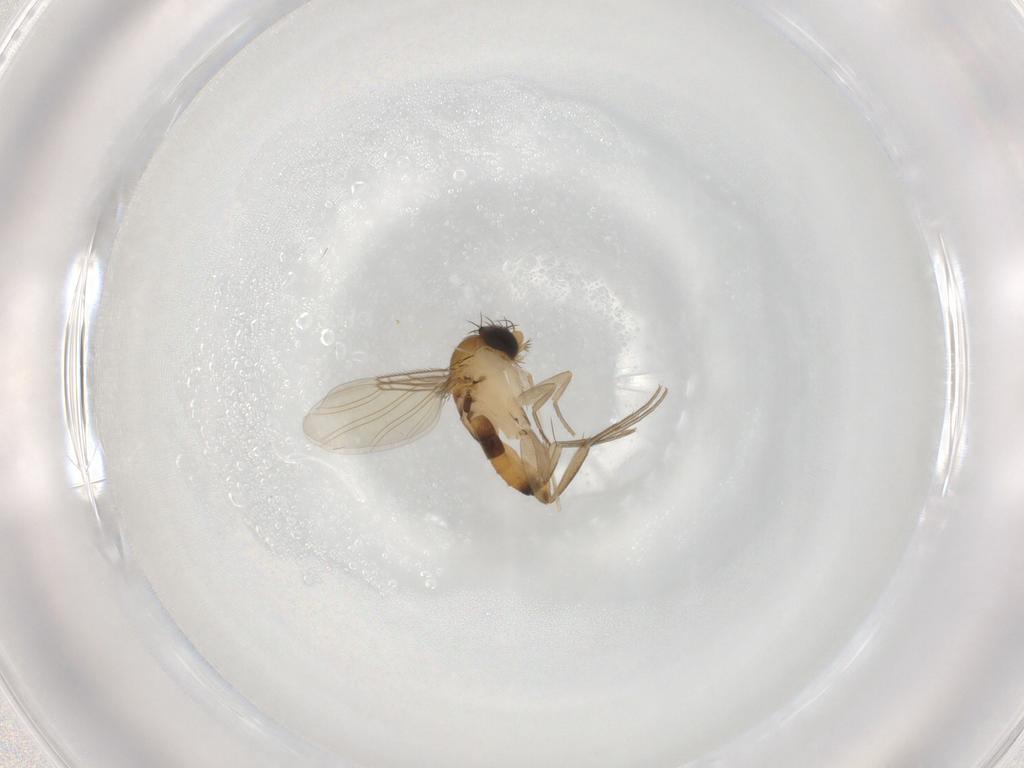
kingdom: Animalia
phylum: Arthropoda
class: Insecta
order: Diptera
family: Phoridae
